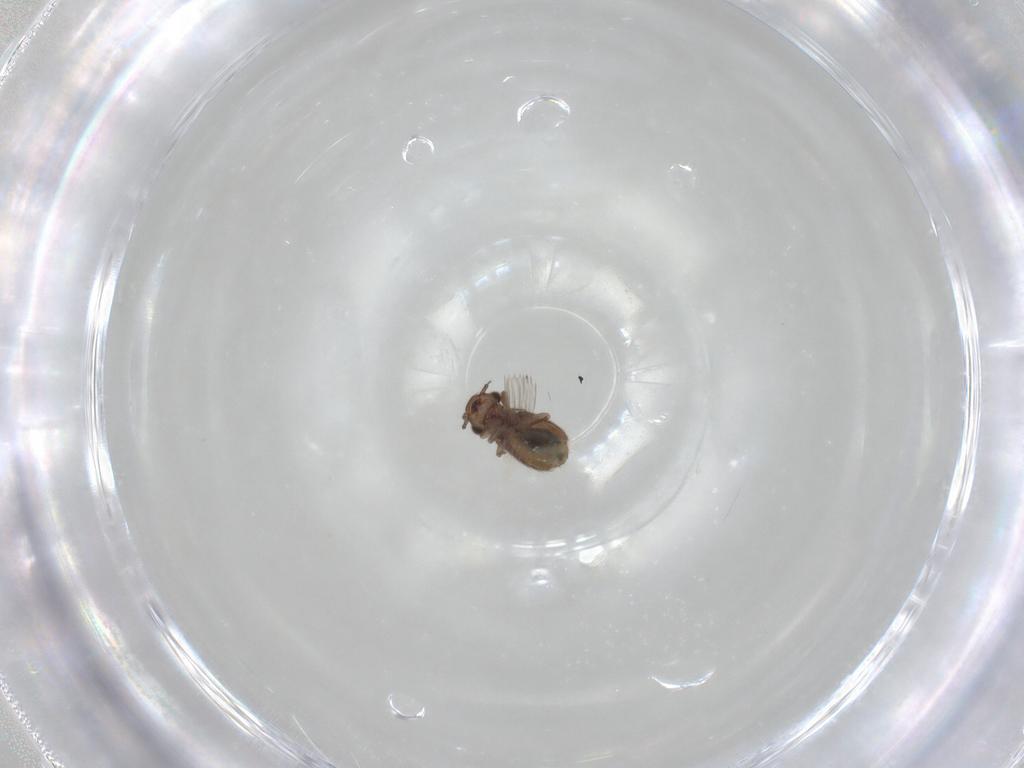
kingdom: Animalia
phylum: Arthropoda
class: Insecta
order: Psocodea
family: Trogiidae
